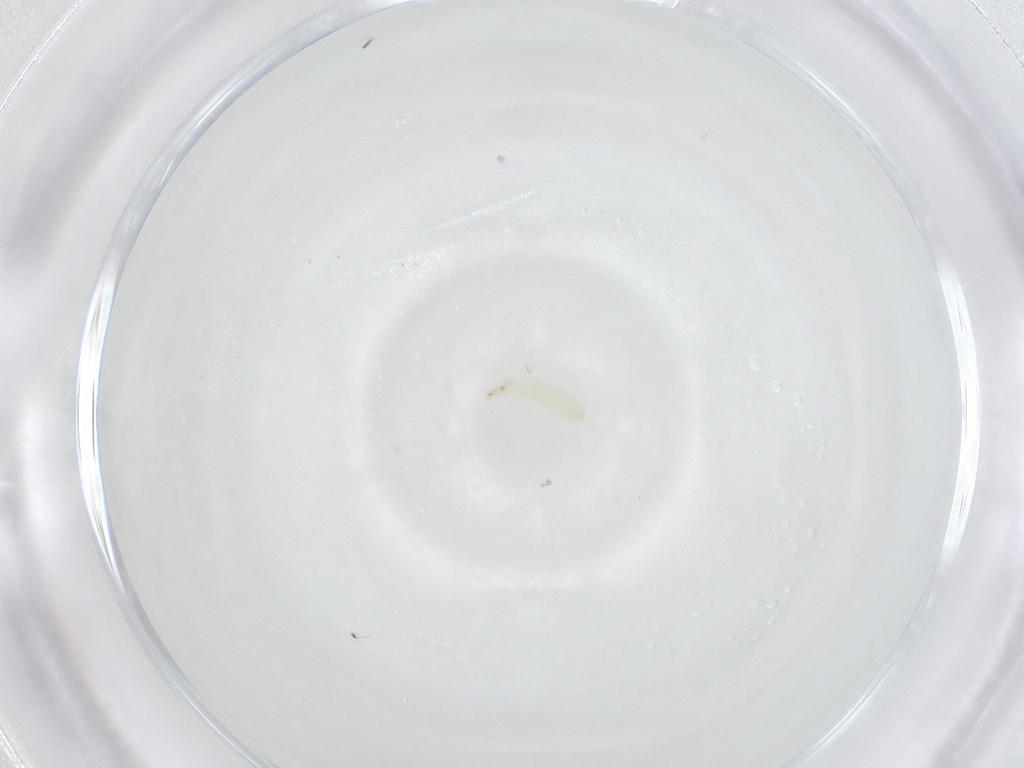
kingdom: Animalia
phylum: Arthropoda
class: Insecta
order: Diptera
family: Sarcophagidae
